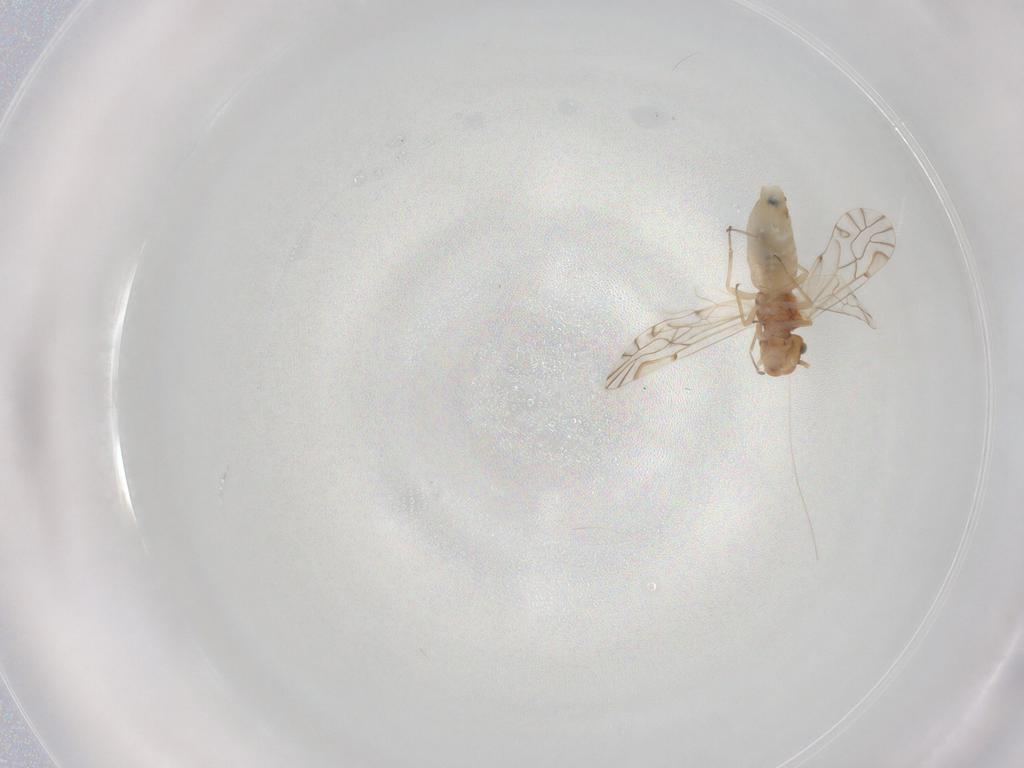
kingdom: Animalia
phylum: Arthropoda
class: Insecta
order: Psocodea
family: Lachesillidae
